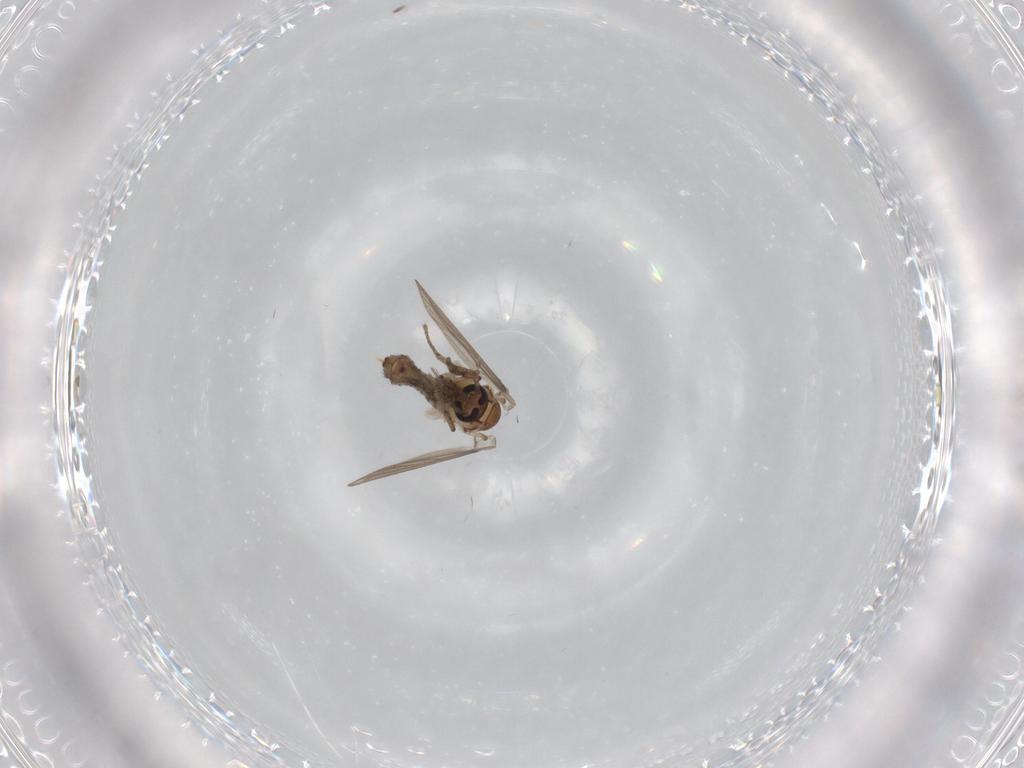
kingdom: Animalia
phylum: Arthropoda
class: Insecta
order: Diptera
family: Psychodidae
